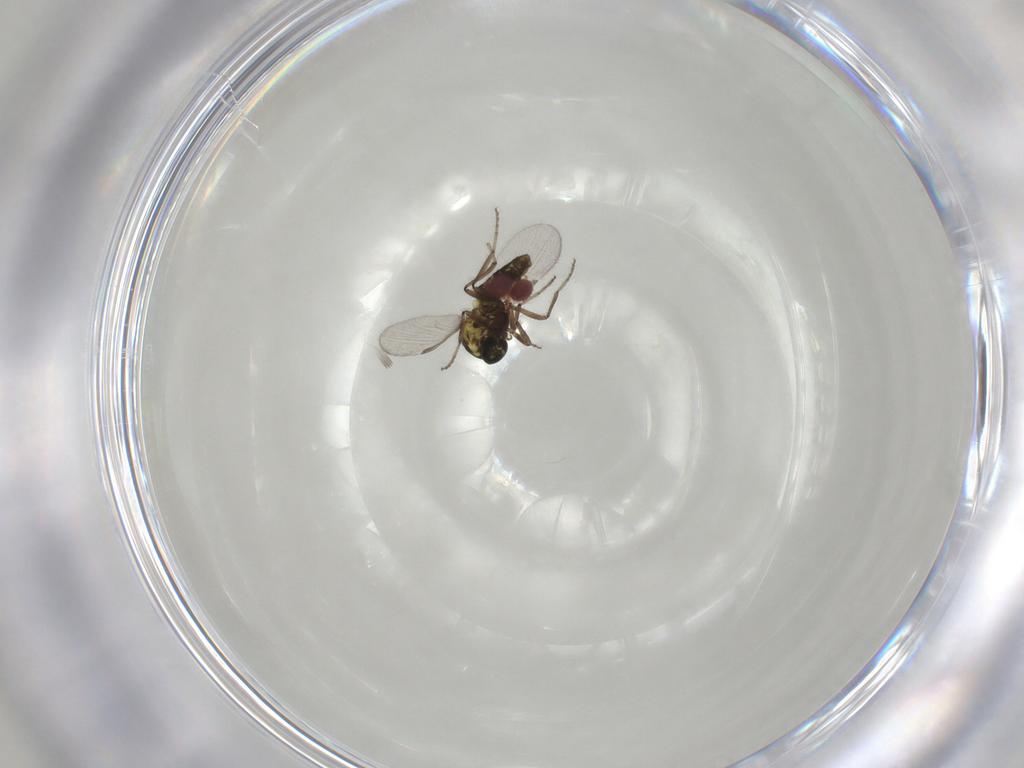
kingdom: Animalia
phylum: Arthropoda
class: Insecta
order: Diptera
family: Ceratopogonidae
